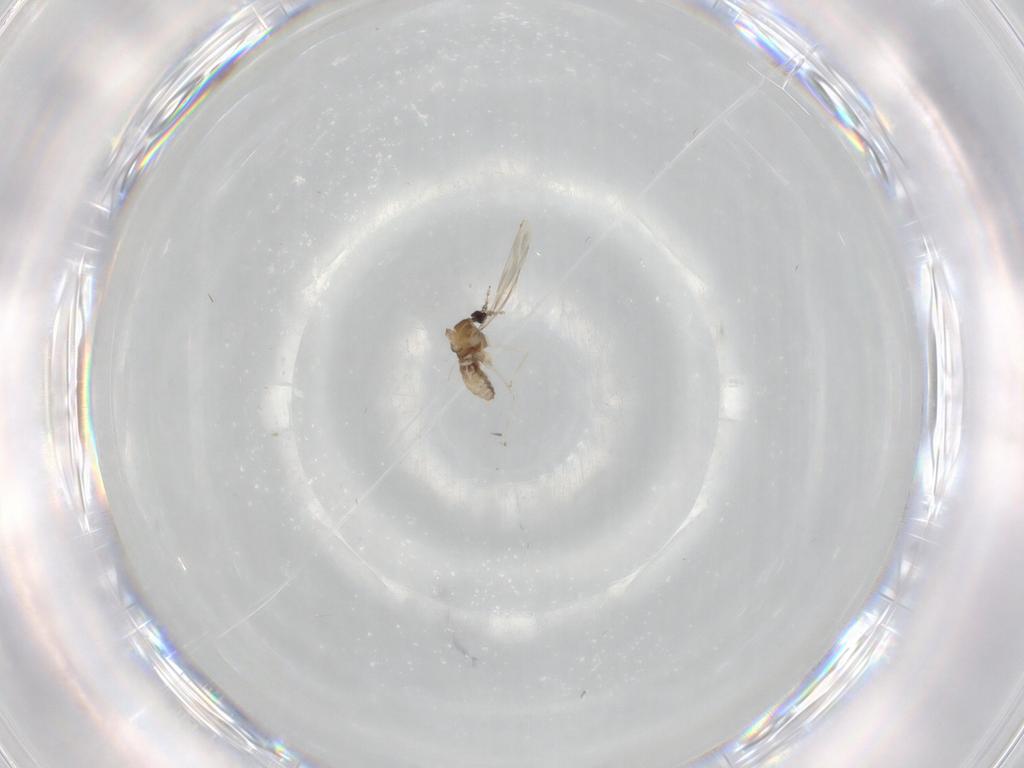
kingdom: Animalia
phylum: Arthropoda
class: Insecta
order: Diptera
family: Cecidomyiidae
